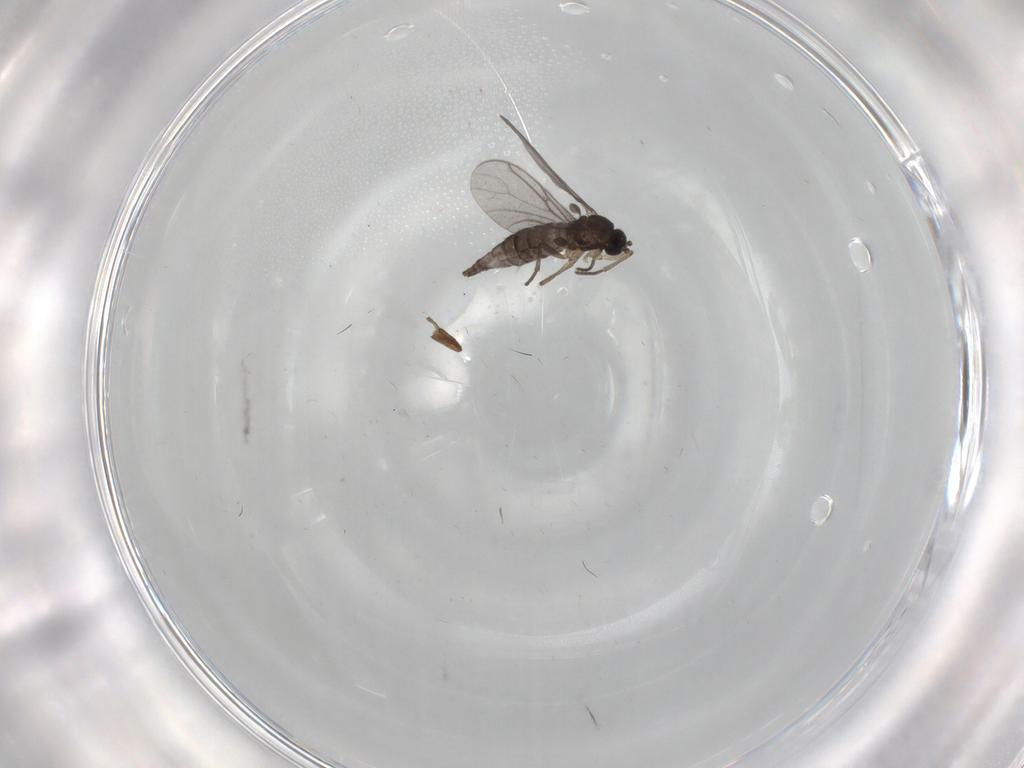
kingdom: Animalia
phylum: Arthropoda
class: Insecta
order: Diptera
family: Sciaridae
